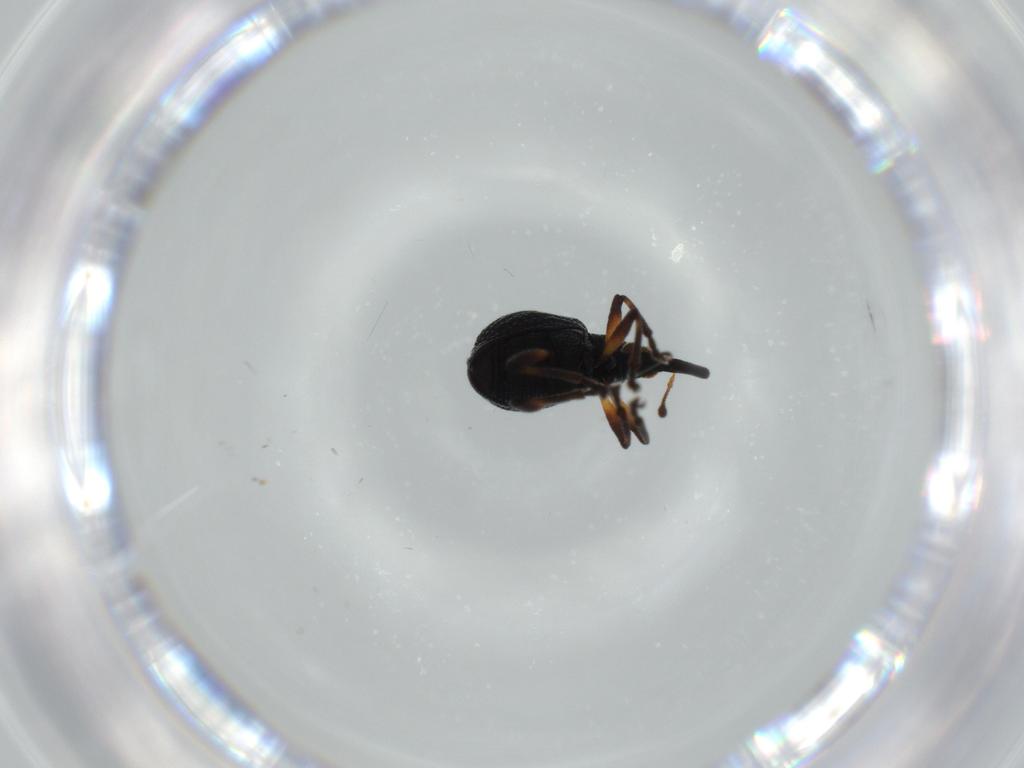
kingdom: Animalia
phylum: Arthropoda
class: Insecta
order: Coleoptera
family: Brentidae
